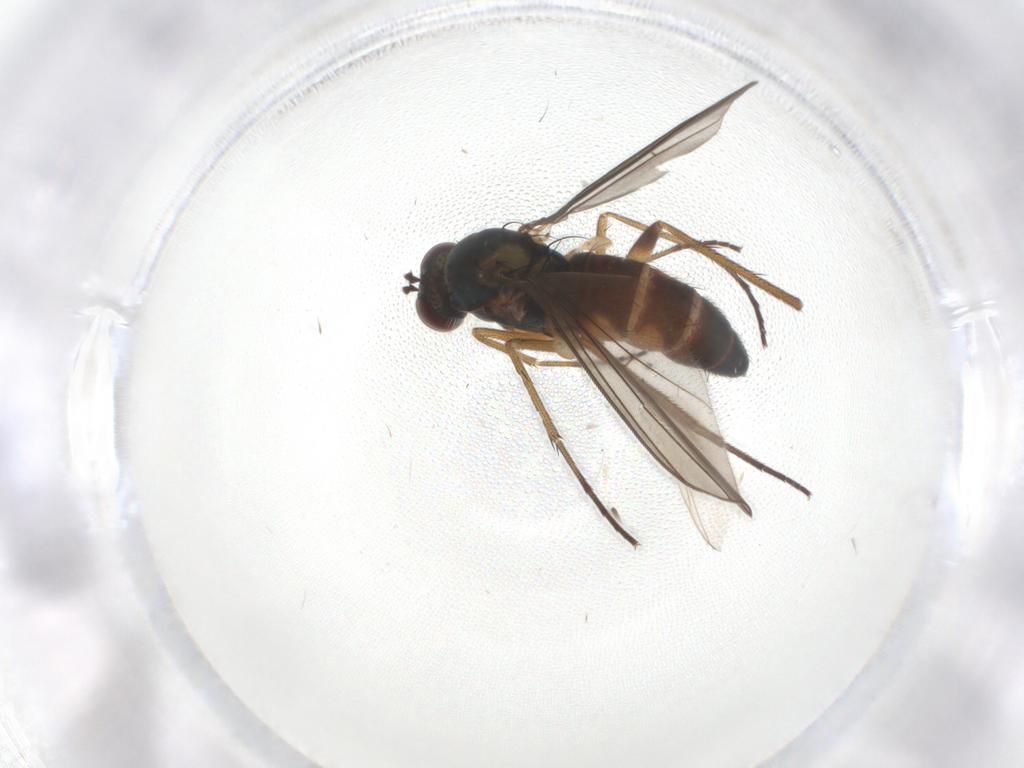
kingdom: Animalia
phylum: Arthropoda
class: Insecta
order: Diptera
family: Dolichopodidae
